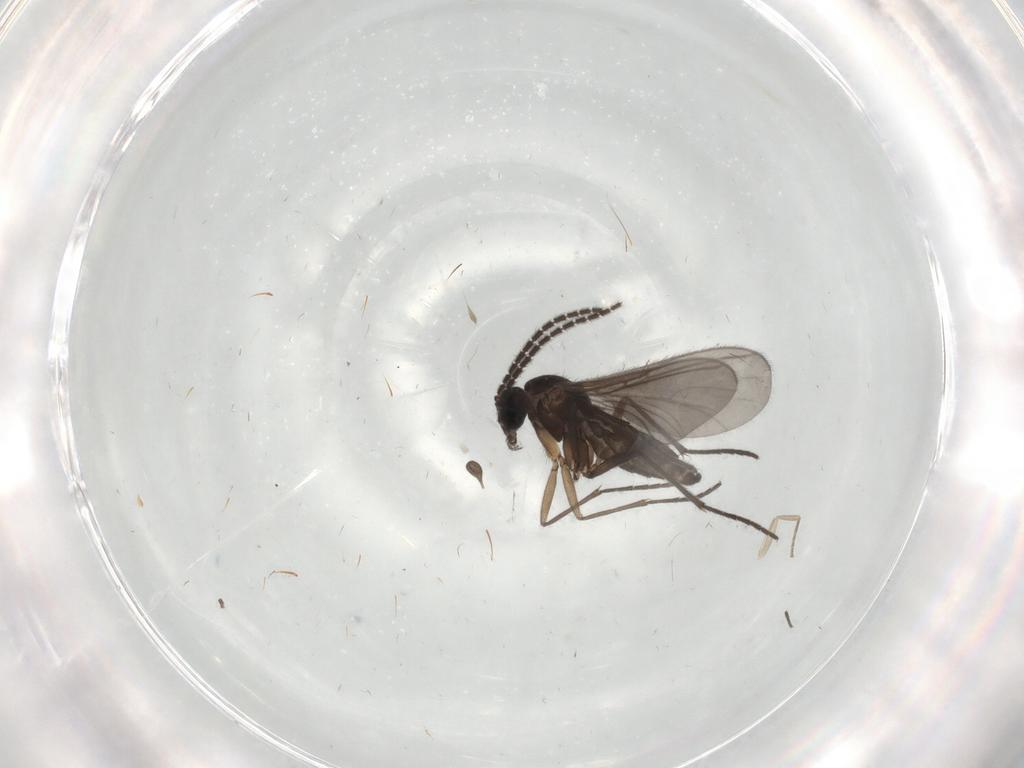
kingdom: Animalia
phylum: Arthropoda
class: Insecta
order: Diptera
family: Sciaridae
